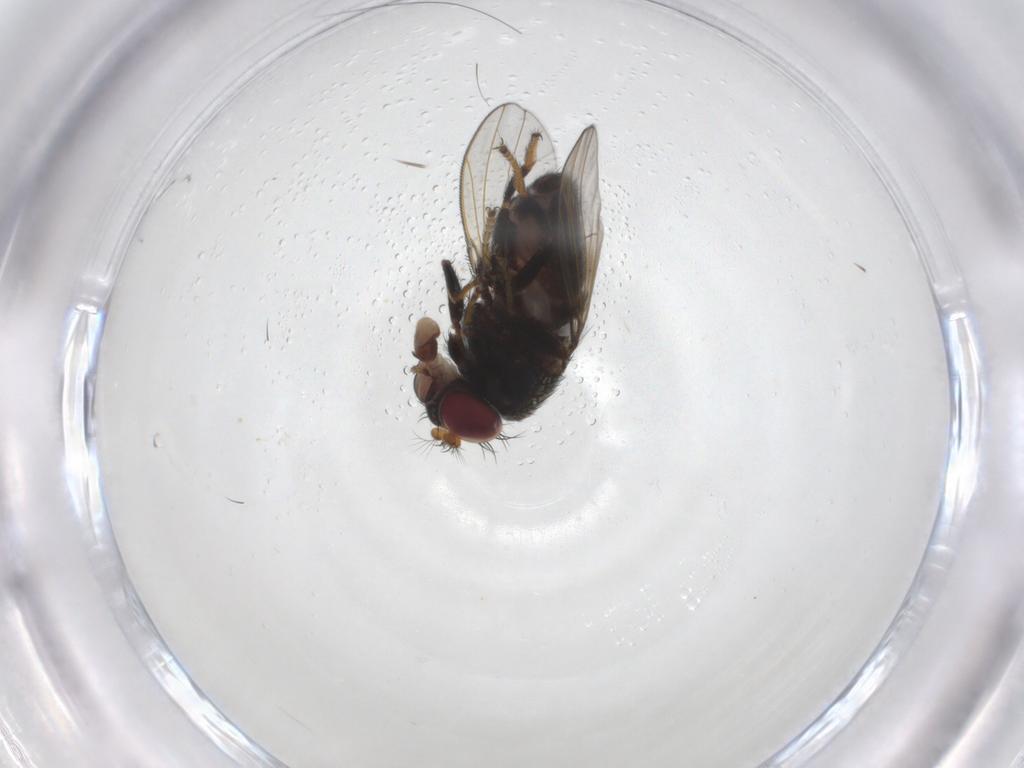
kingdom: Animalia
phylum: Arthropoda
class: Insecta
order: Diptera
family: Ephydridae
